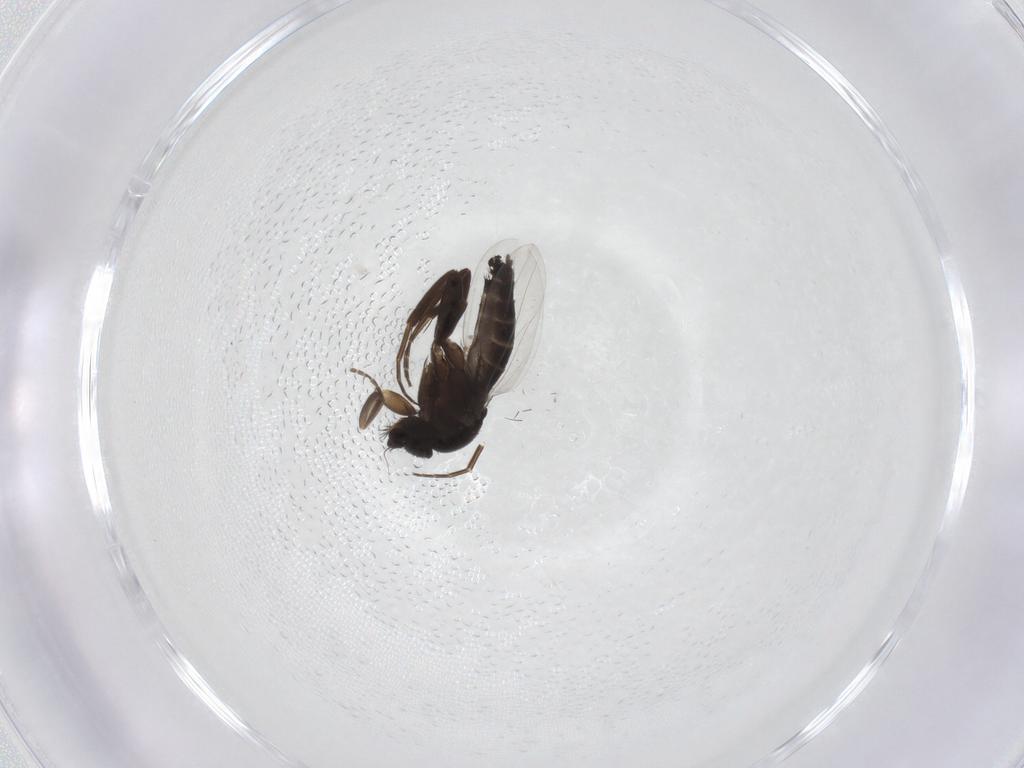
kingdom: Animalia
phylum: Arthropoda
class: Insecta
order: Diptera
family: Phoridae
